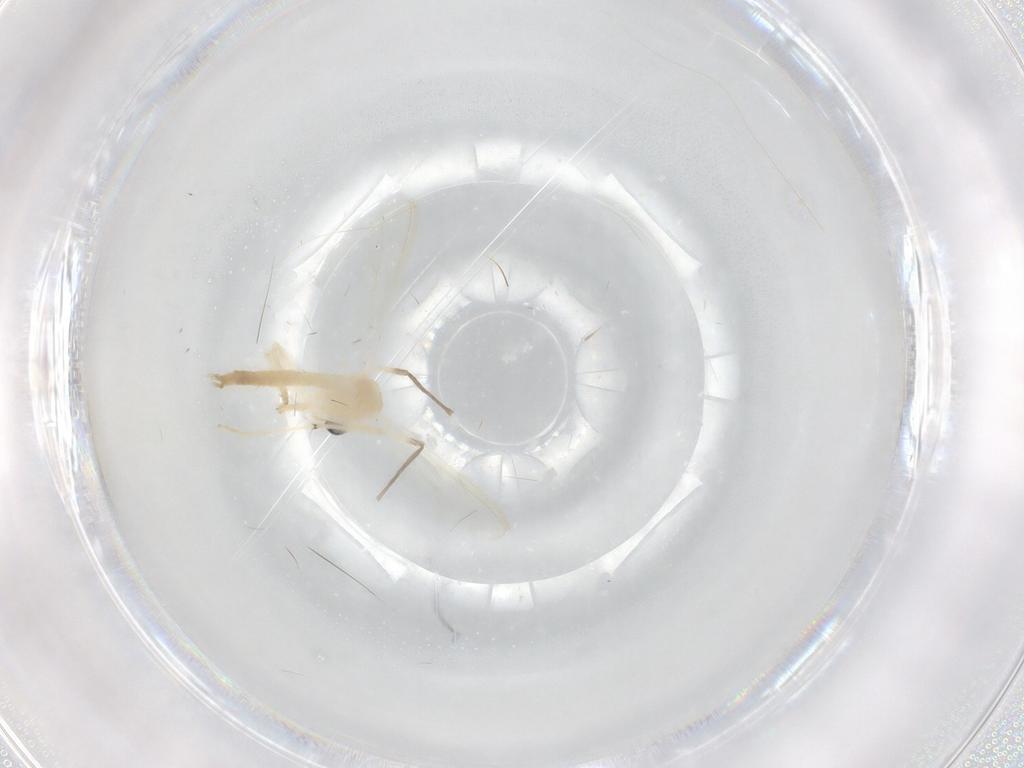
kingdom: Animalia
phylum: Arthropoda
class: Insecta
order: Diptera
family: Chironomidae
